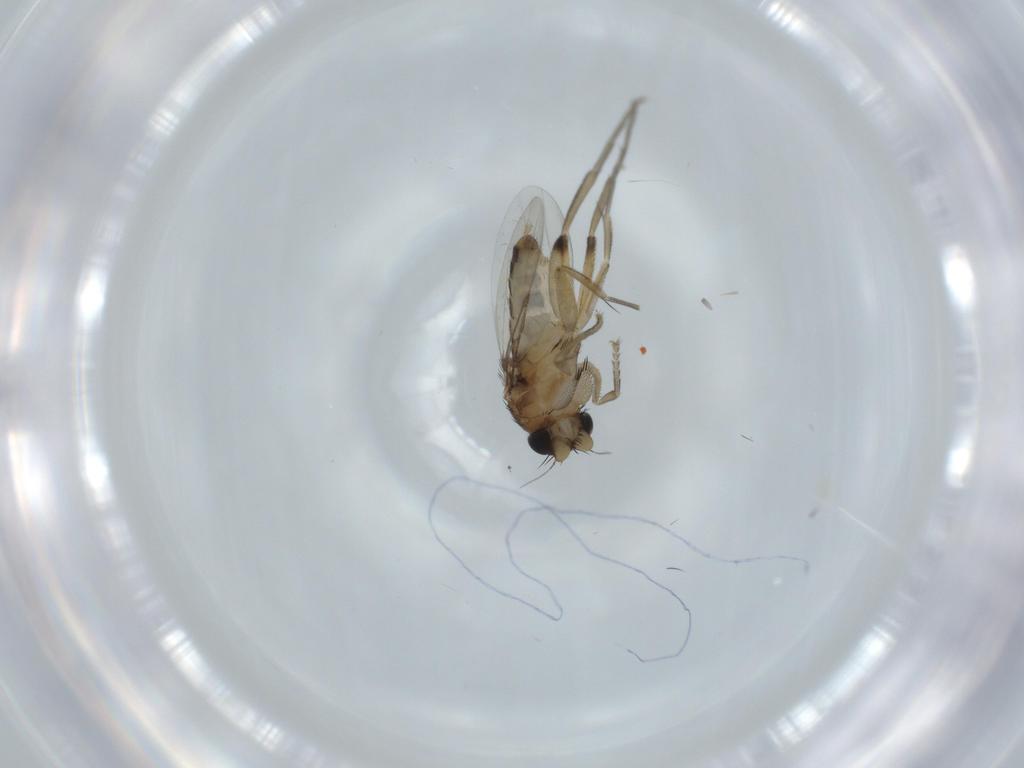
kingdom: Animalia
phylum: Arthropoda
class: Insecta
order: Diptera
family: Phoridae
